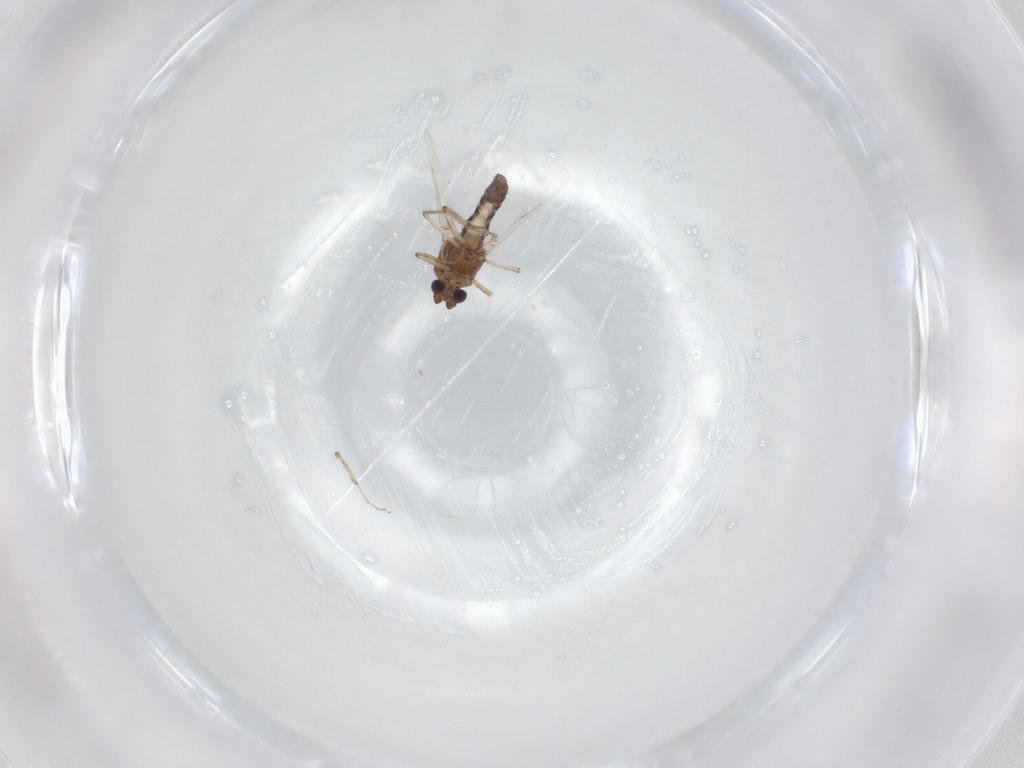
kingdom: Animalia
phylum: Arthropoda
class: Insecta
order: Diptera
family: Ceratopogonidae
